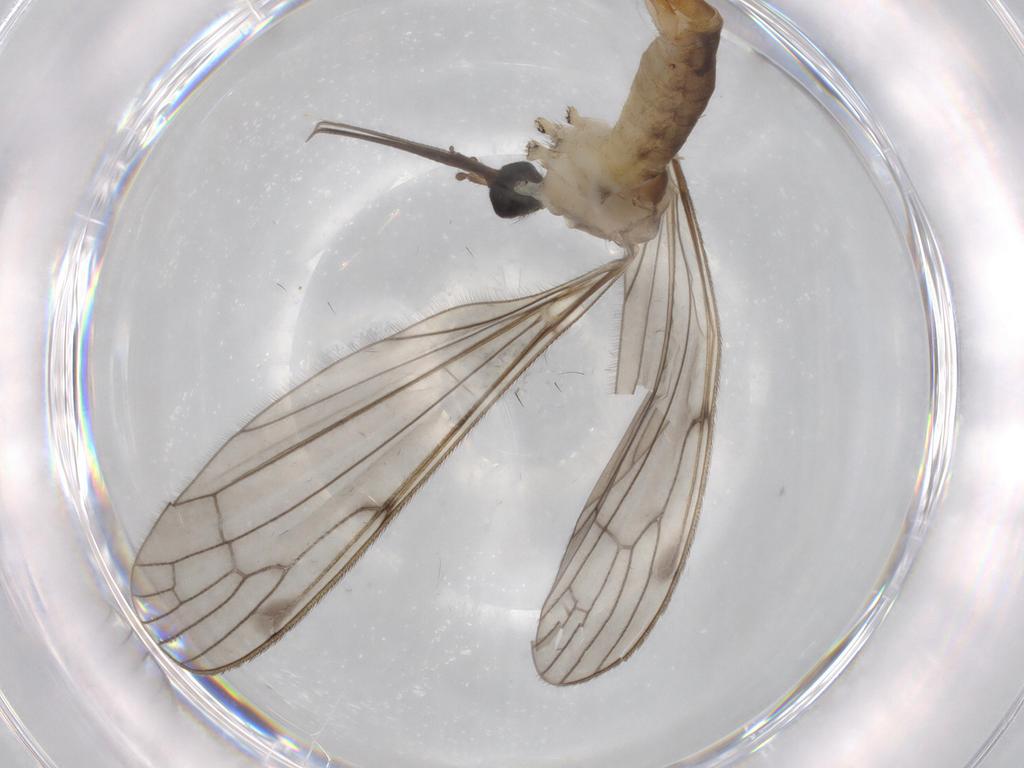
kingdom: Animalia
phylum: Arthropoda
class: Insecta
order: Diptera
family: Limoniidae
